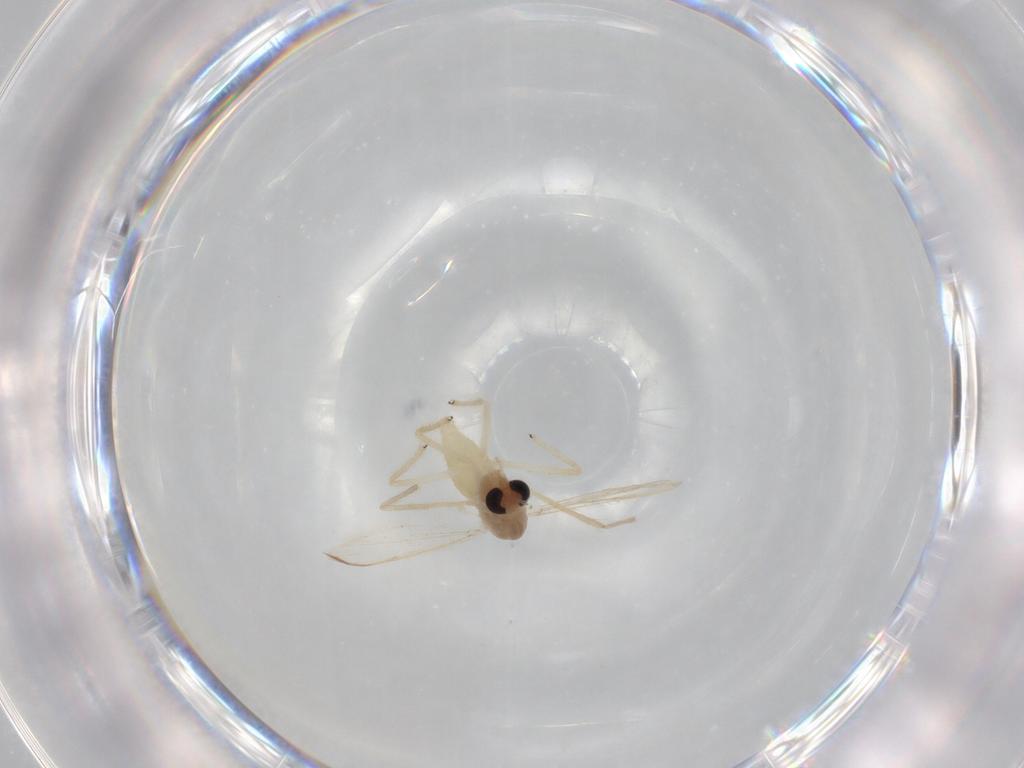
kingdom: Animalia
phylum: Arthropoda
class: Insecta
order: Diptera
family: Chironomidae
